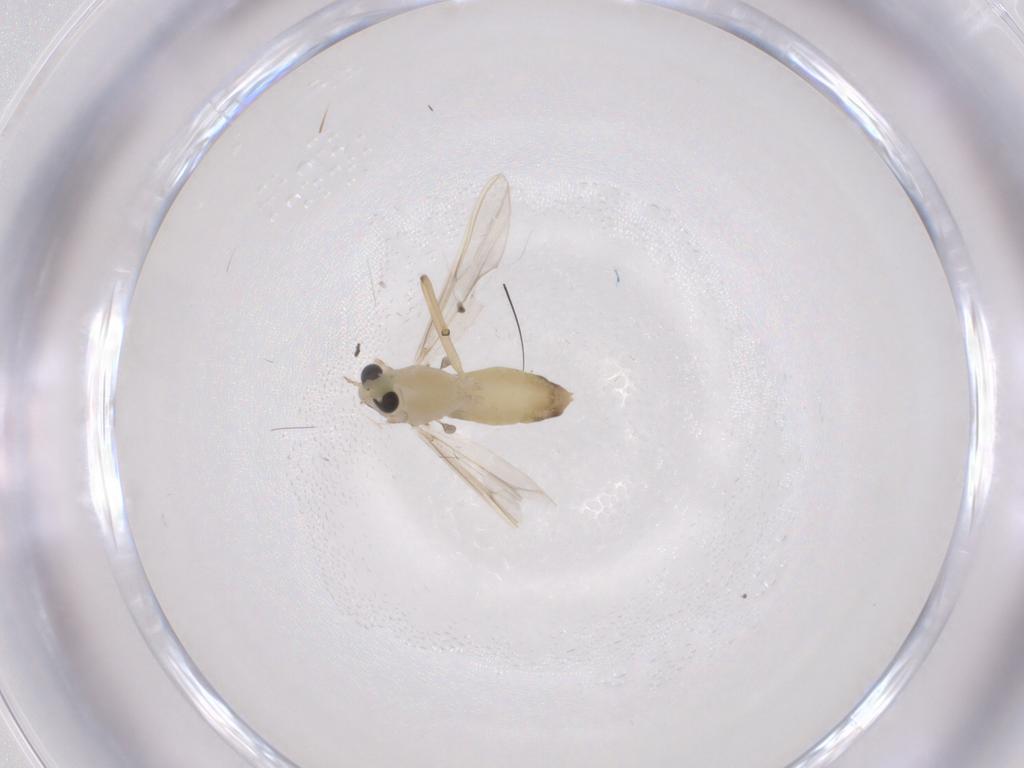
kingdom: Animalia
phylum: Arthropoda
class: Insecta
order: Diptera
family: Chironomidae
